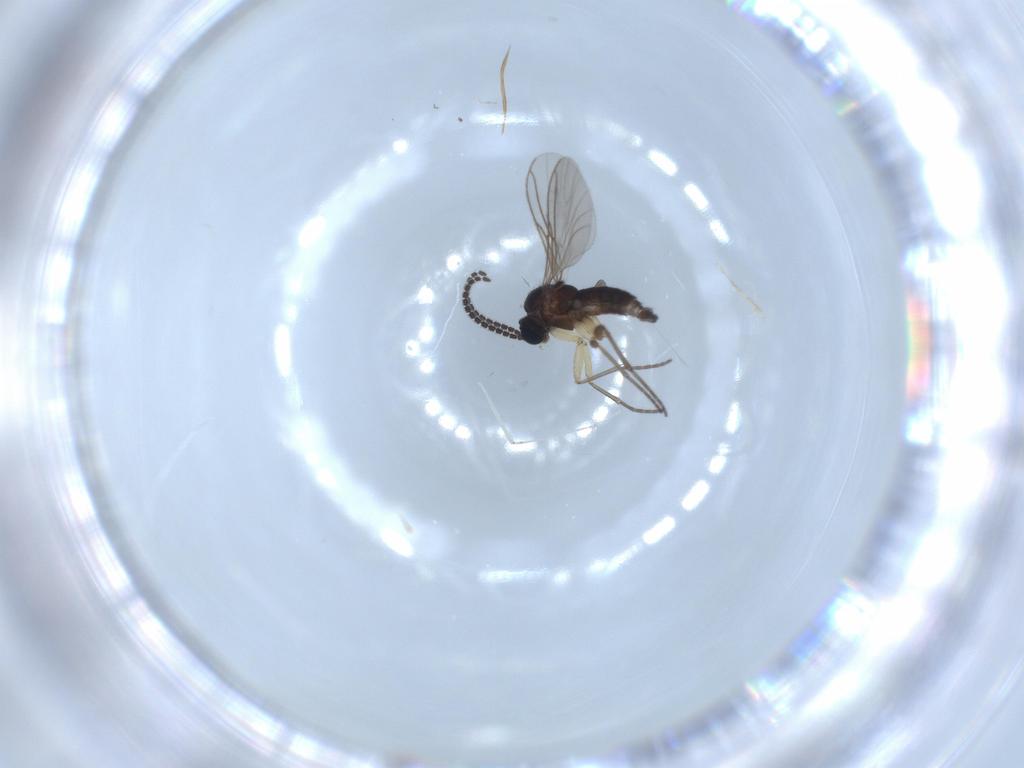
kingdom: Animalia
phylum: Arthropoda
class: Insecta
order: Diptera
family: Sciaridae
